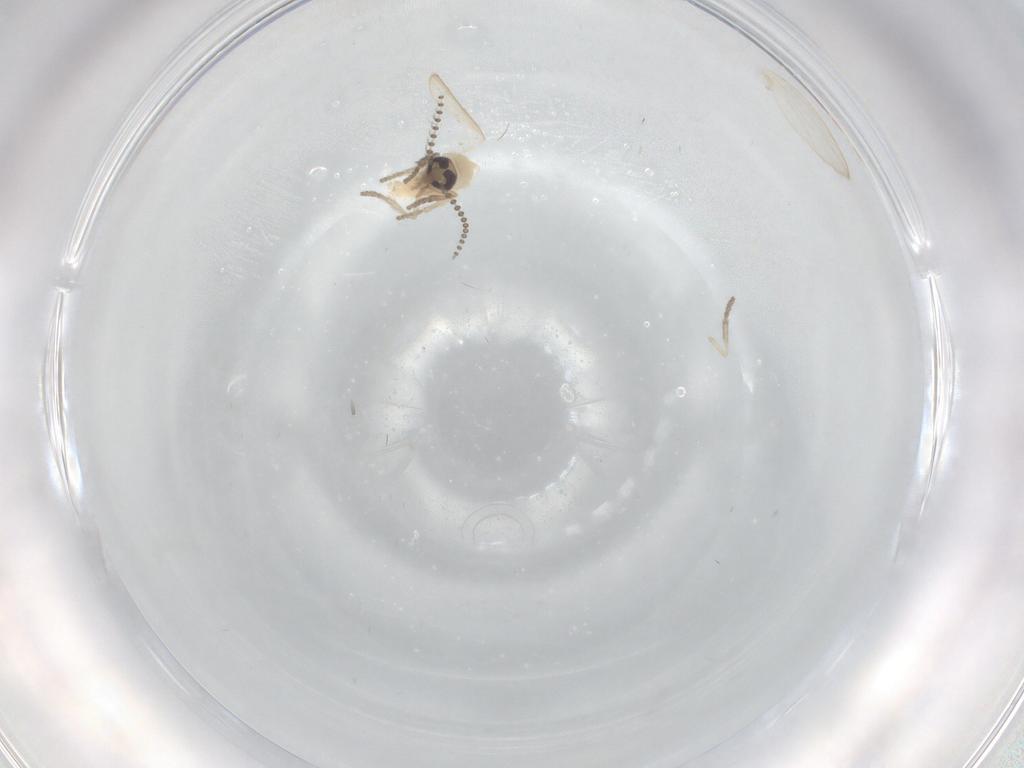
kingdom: Animalia
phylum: Arthropoda
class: Insecta
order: Diptera
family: Psychodidae
